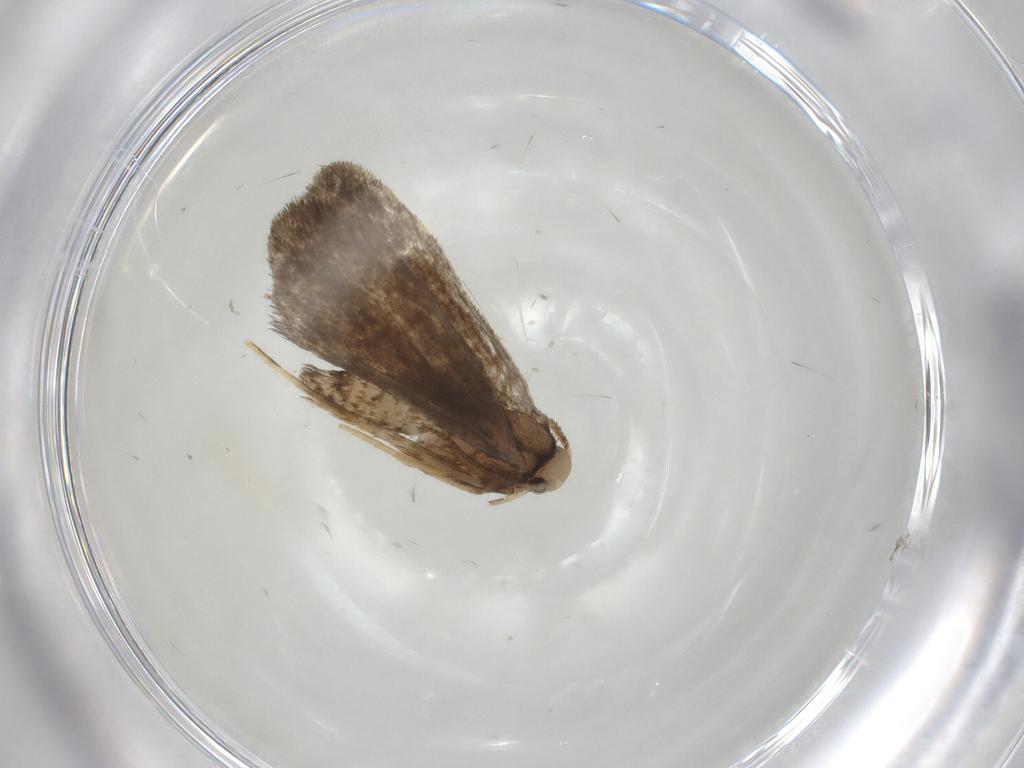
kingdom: Animalia
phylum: Arthropoda
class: Insecta
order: Lepidoptera
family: Psychidae
